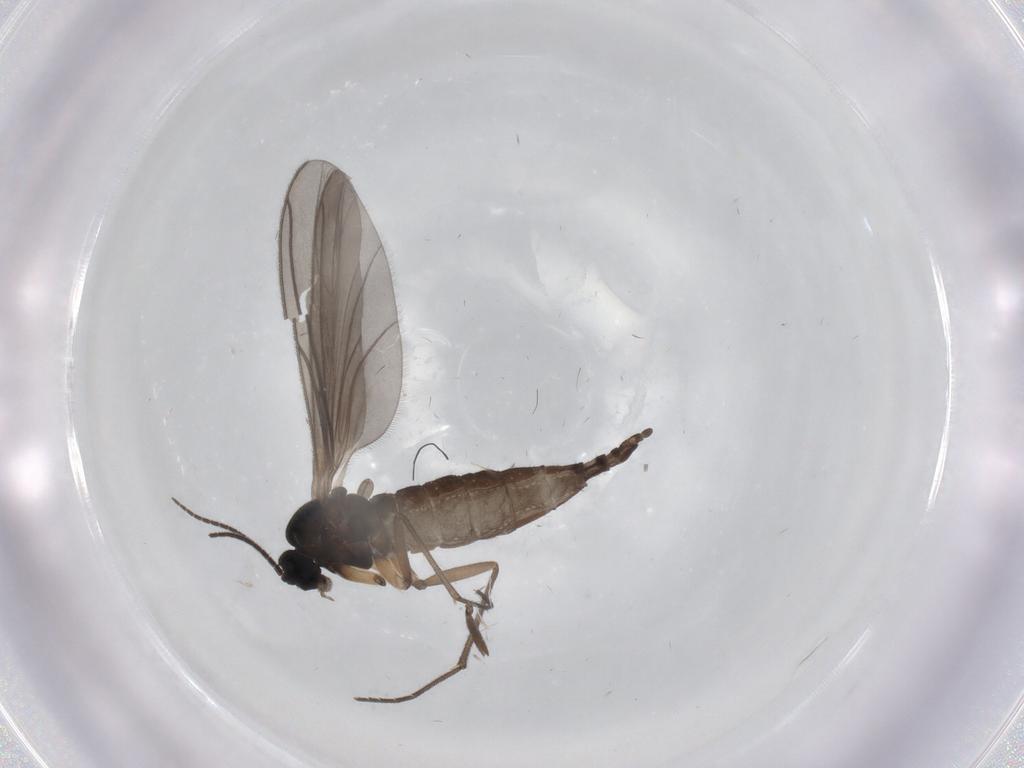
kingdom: Animalia
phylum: Arthropoda
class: Insecta
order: Diptera
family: Drosophilidae
